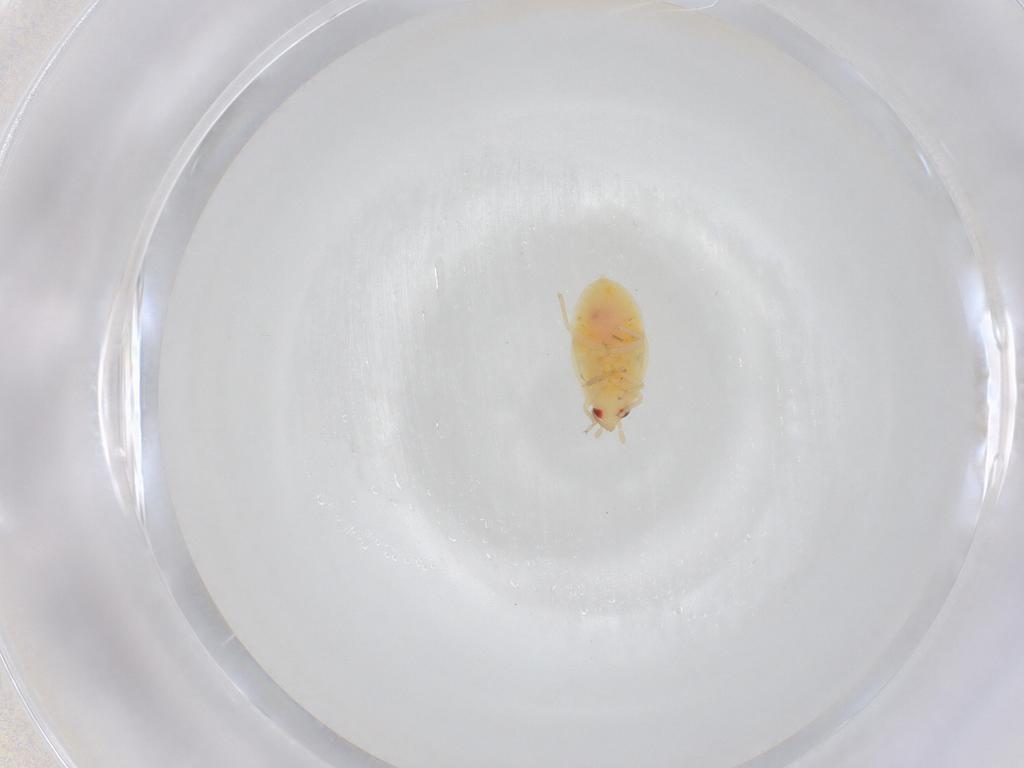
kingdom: Animalia
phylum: Arthropoda
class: Insecta
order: Hemiptera
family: Anthocoridae
